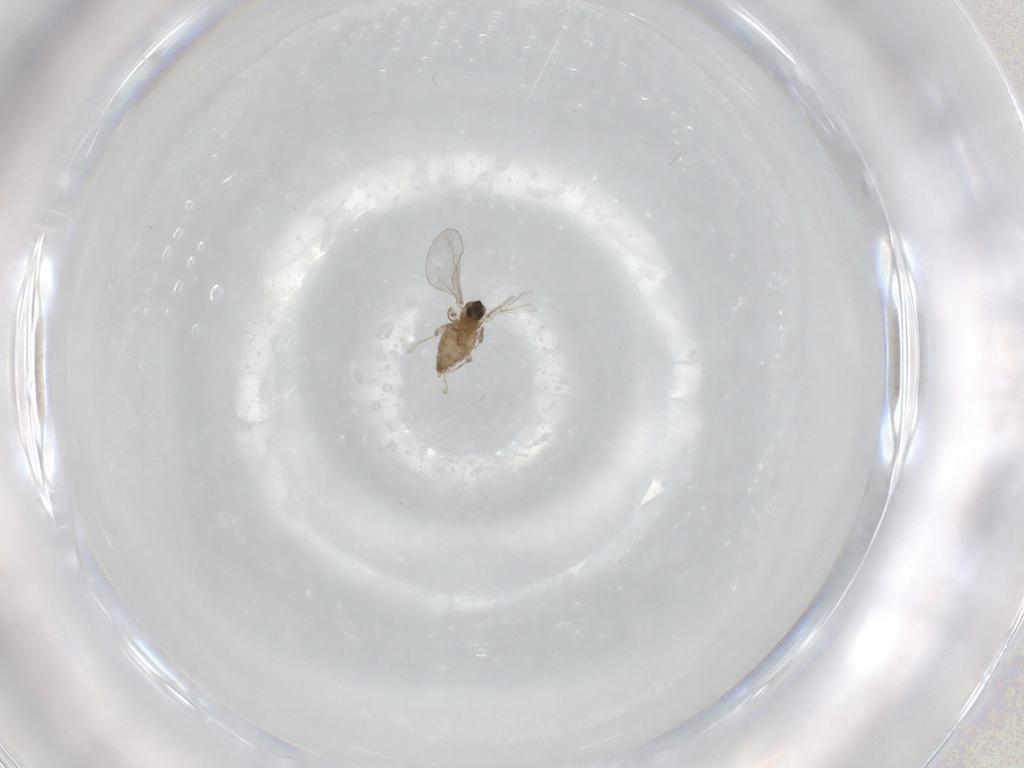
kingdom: Animalia
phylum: Arthropoda
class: Insecta
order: Diptera
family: Cecidomyiidae
